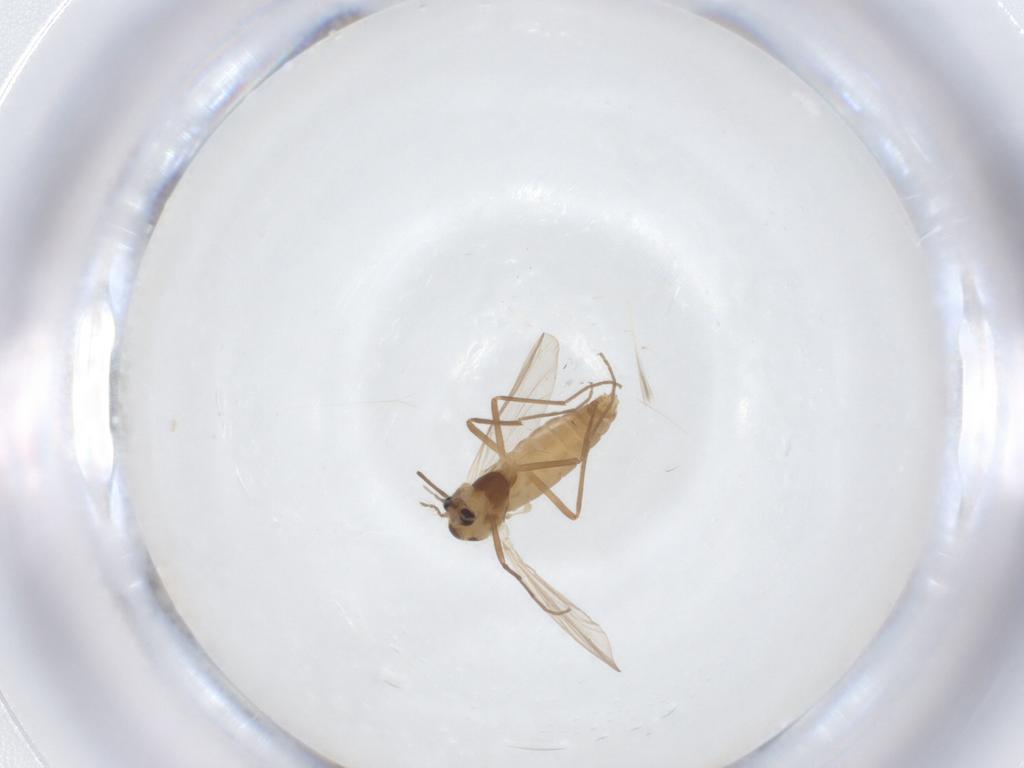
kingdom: Animalia
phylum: Arthropoda
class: Insecta
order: Diptera
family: Chironomidae
